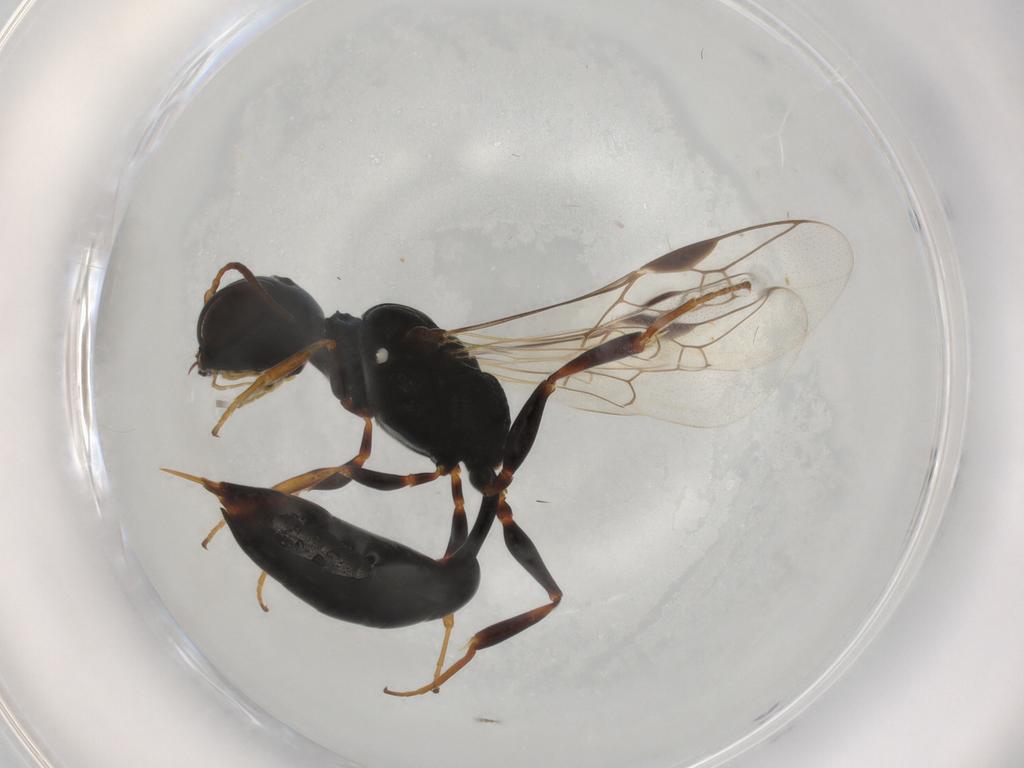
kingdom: Animalia
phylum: Arthropoda
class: Insecta
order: Hymenoptera
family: Crabronidae
